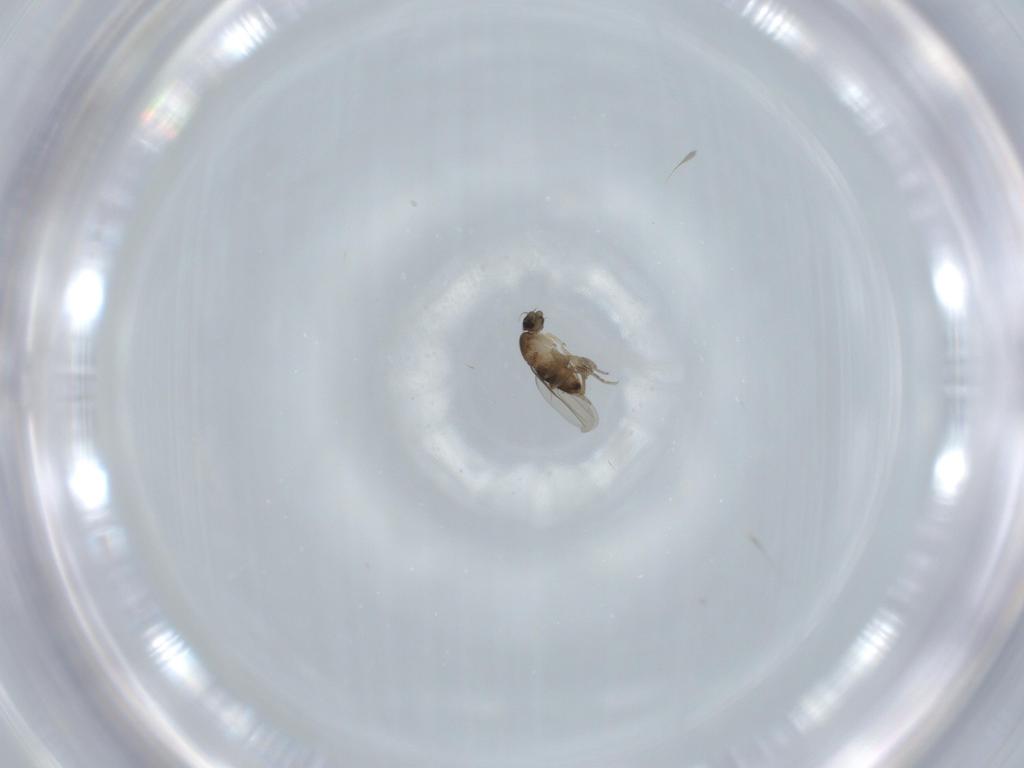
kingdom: Animalia
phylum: Arthropoda
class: Insecta
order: Diptera
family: Phoridae
